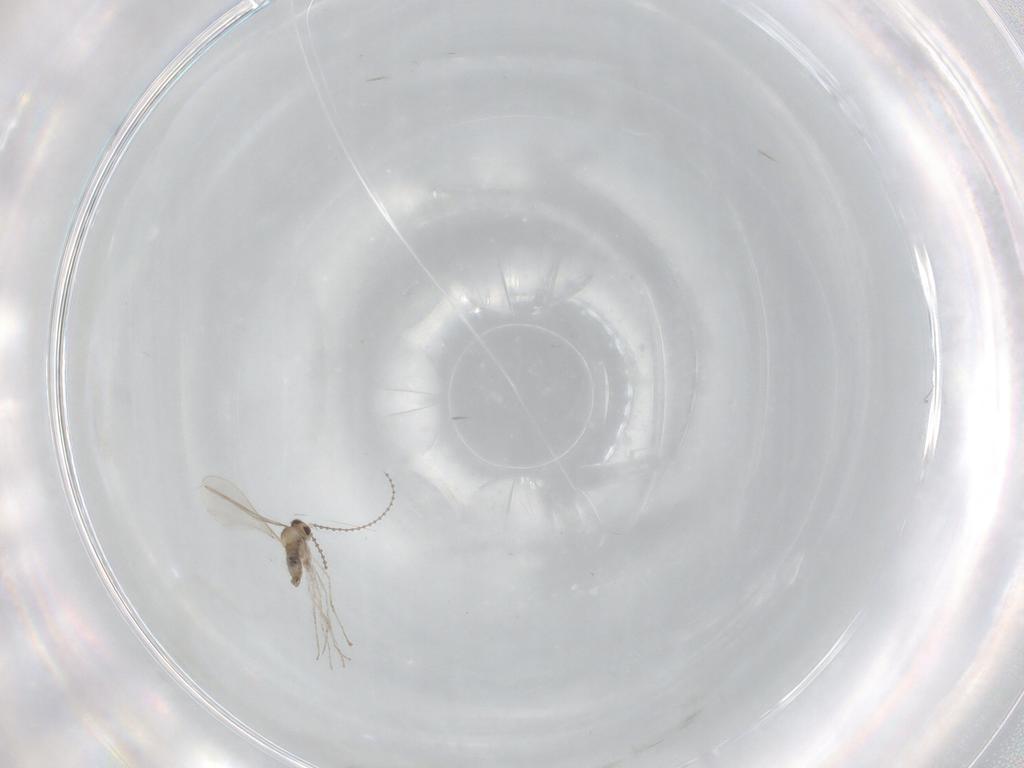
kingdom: Animalia
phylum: Arthropoda
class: Insecta
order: Diptera
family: Cecidomyiidae
